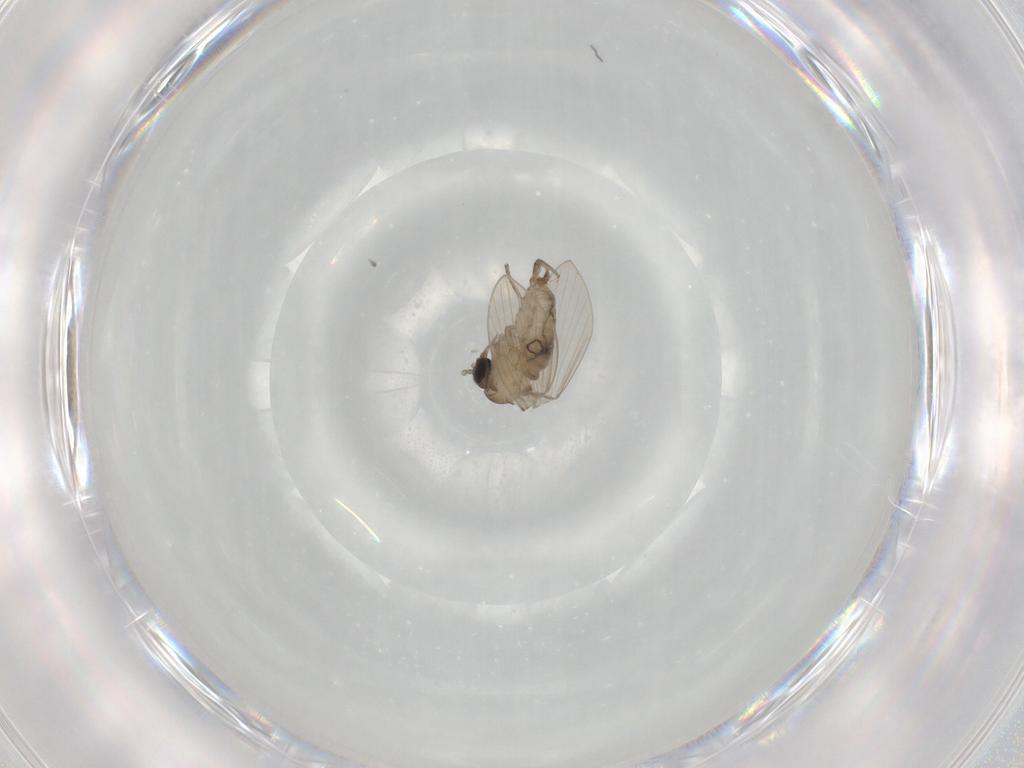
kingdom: Animalia
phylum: Arthropoda
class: Insecta
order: Diptera
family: Psychodidae
